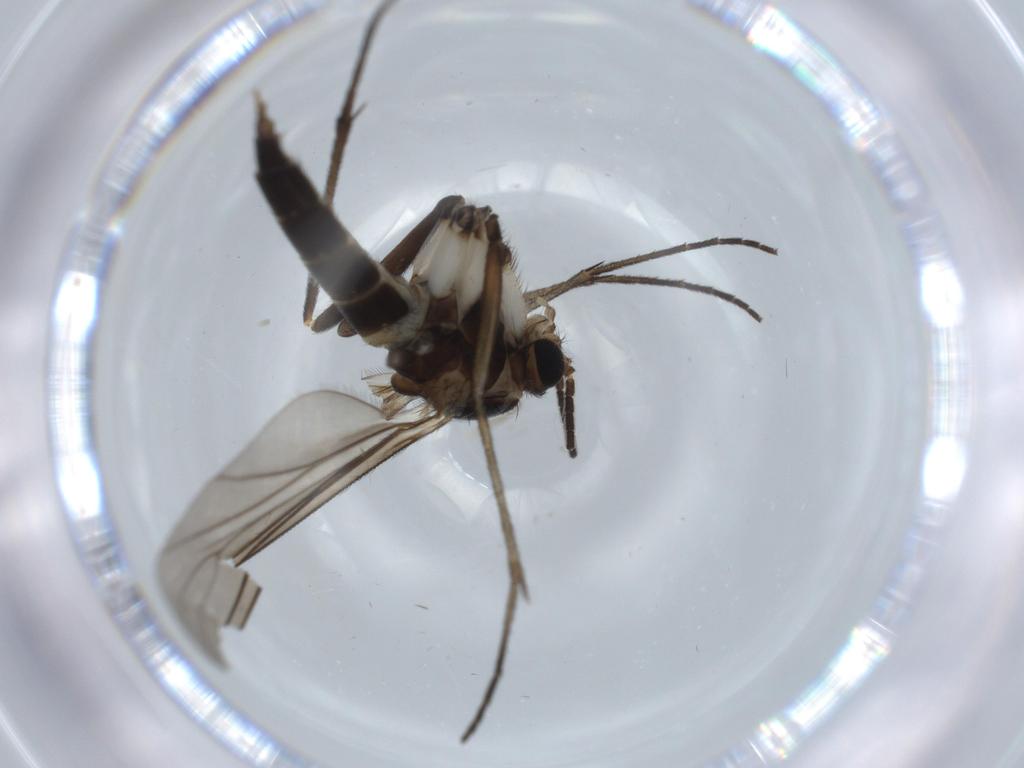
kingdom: Animalia
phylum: Arthropoda
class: Insecta
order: Diptera
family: Sciaridae
